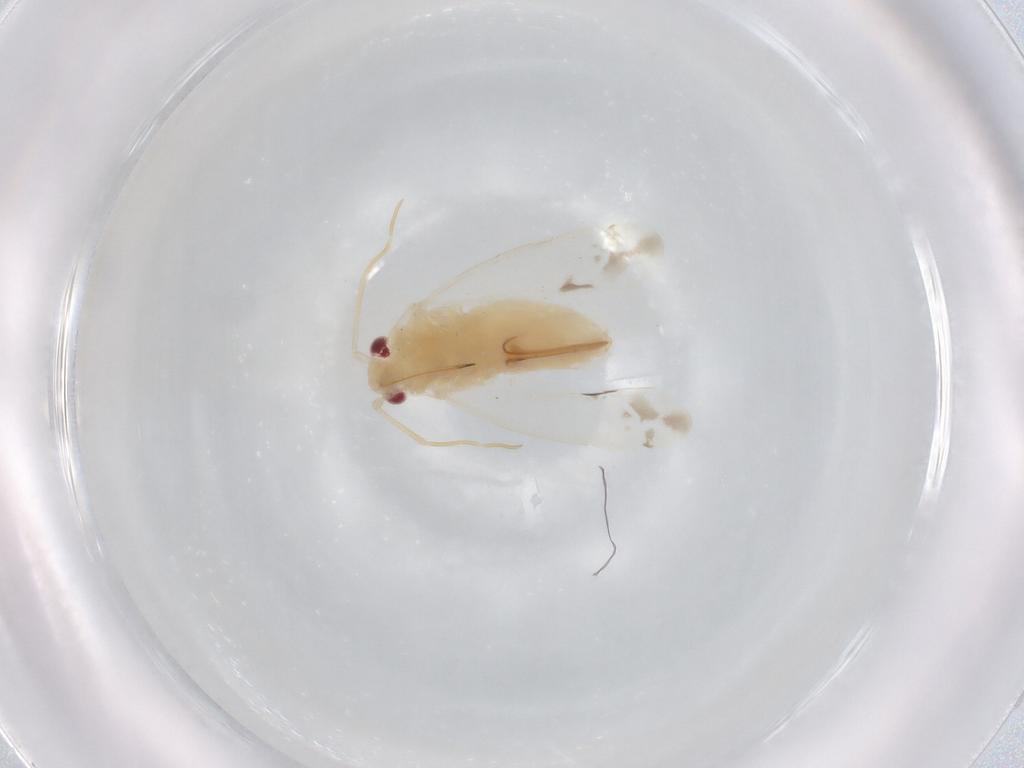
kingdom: Animalia
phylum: Arthropoda
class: Insecta
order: Hemiptera
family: Miridae
